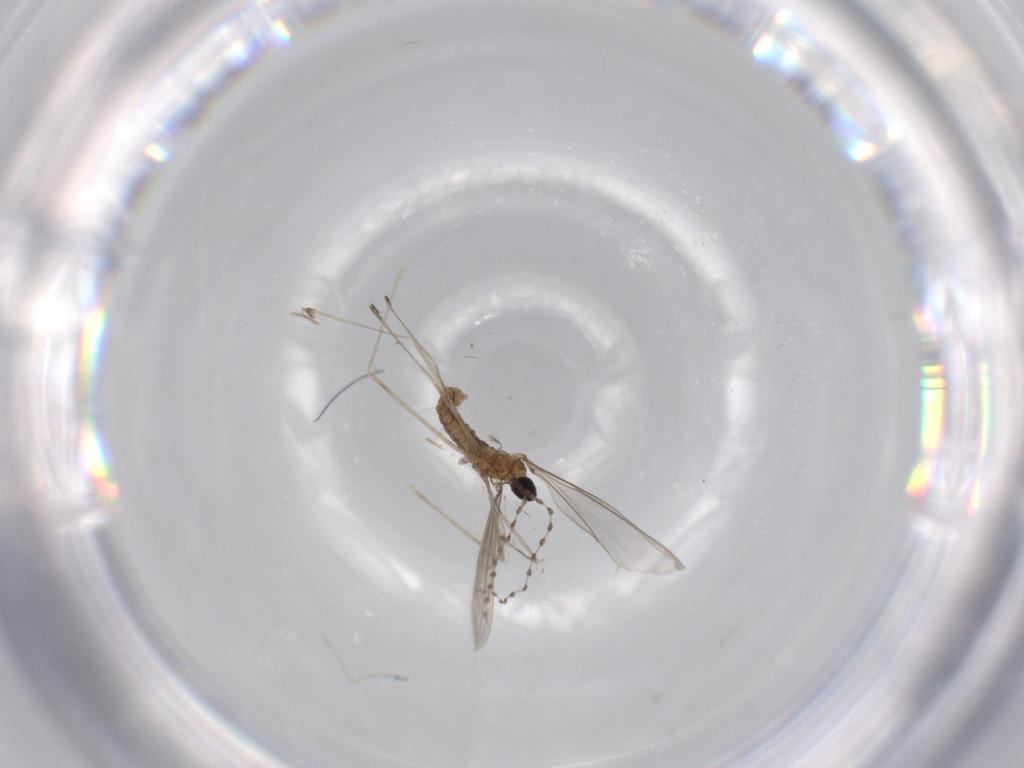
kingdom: Animalia
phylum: Arthropoda
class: Insecta
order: Diptera
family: Cecidomyiidae
